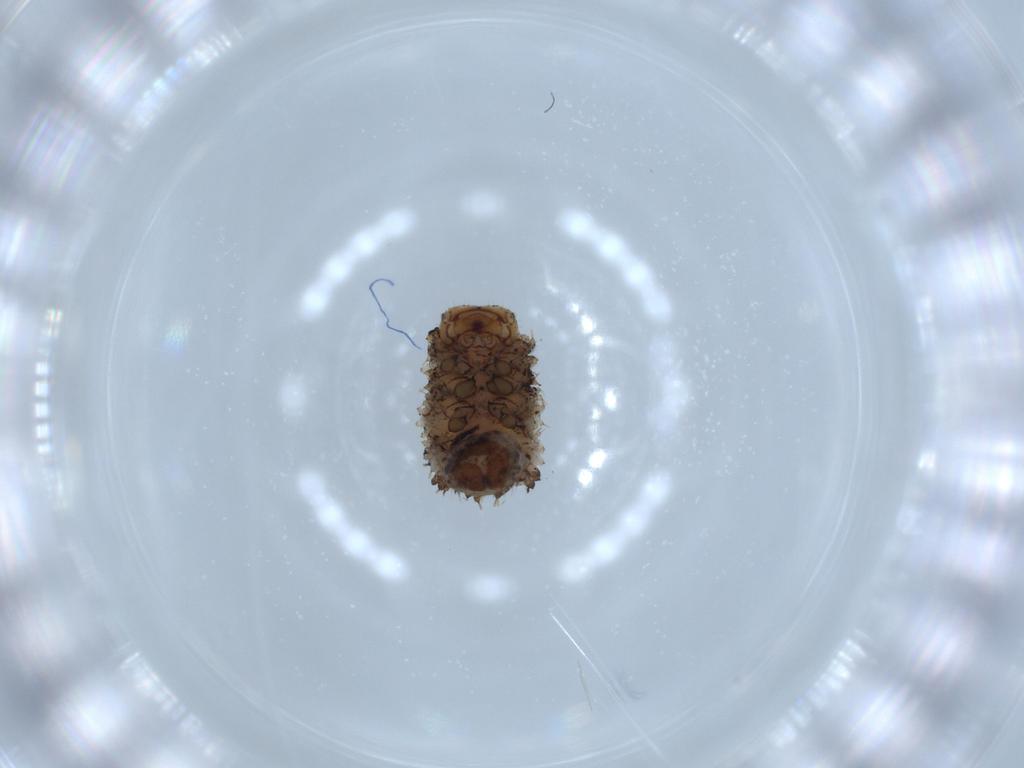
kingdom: Animalia
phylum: Arthropoda
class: Insecta
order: Coleoptera
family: Chrysomelidae
